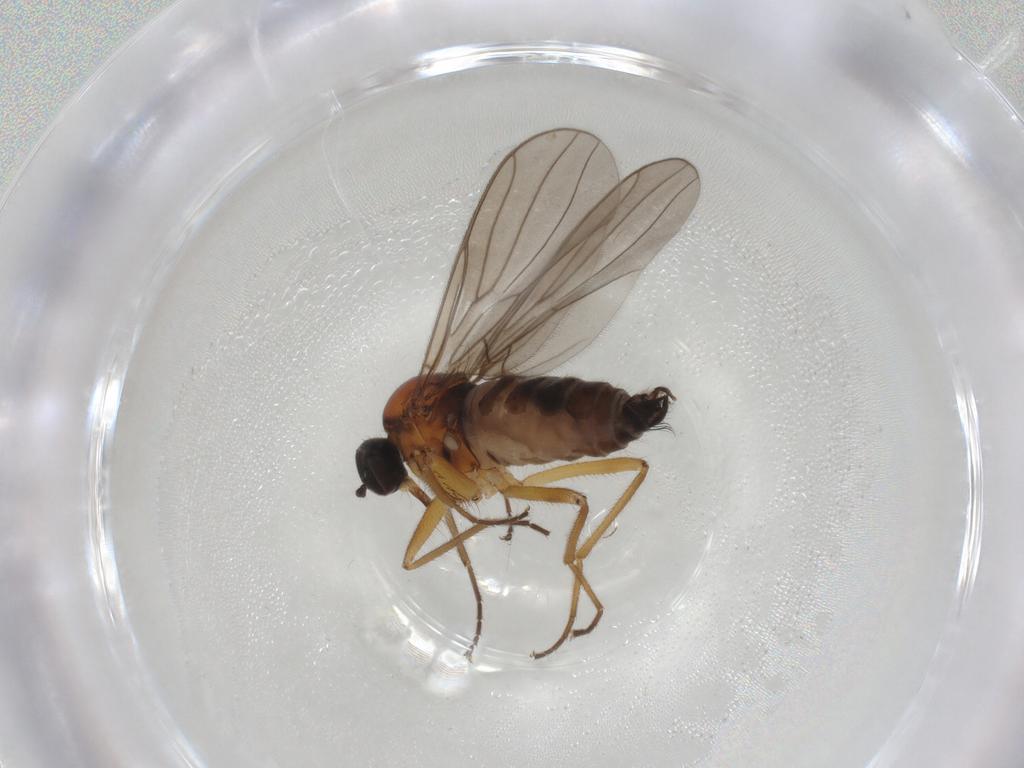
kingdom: Animalia
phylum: Arthropoda
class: Insecta
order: Diptera
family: Hybotidae
